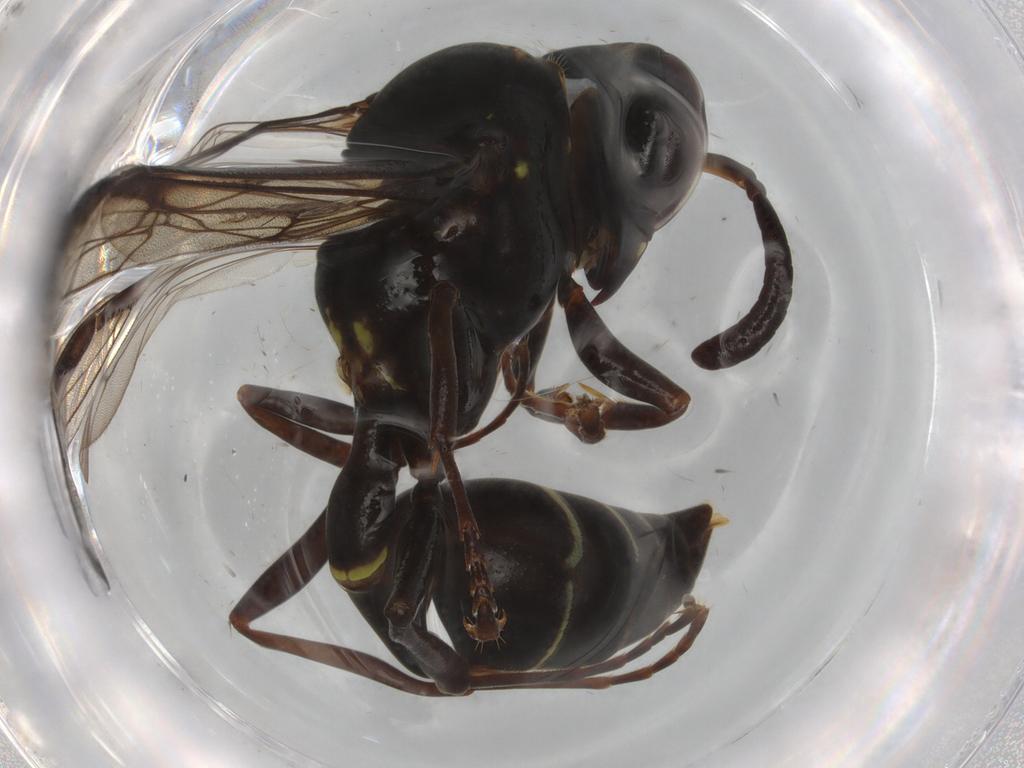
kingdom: Animalia
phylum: Arthropoda
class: Insecta
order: Hymenoptera
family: Vespidae
